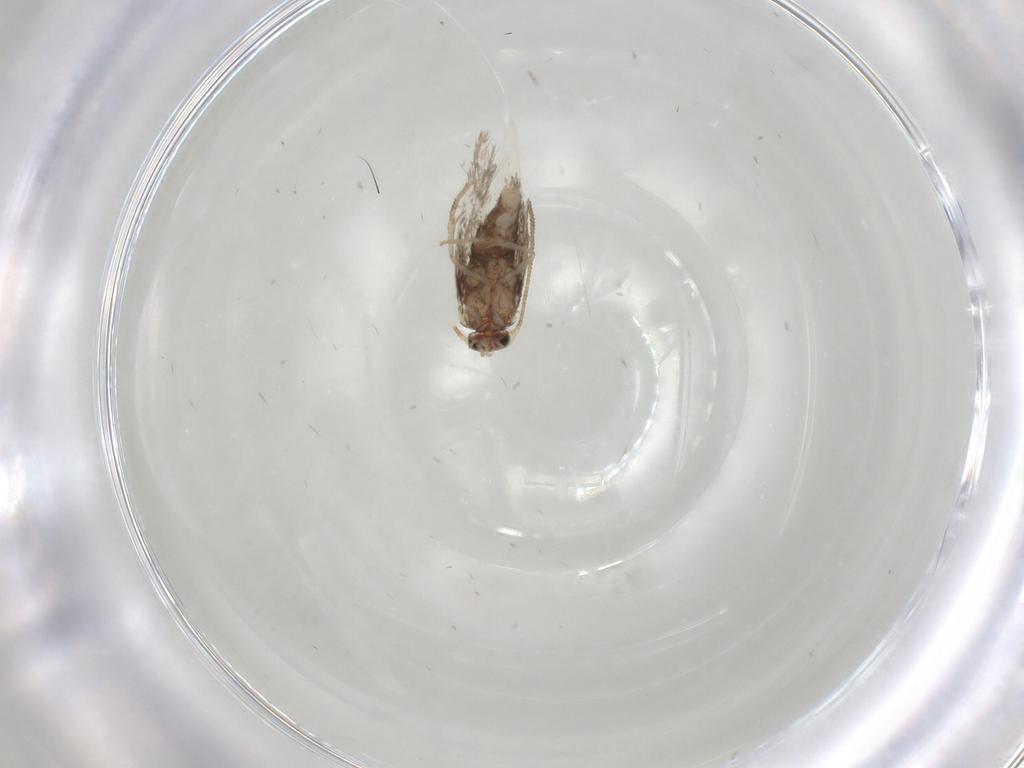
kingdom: Animalia
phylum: Arthropoda
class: Insecta
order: Lepidoptera
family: Nepticulidae
